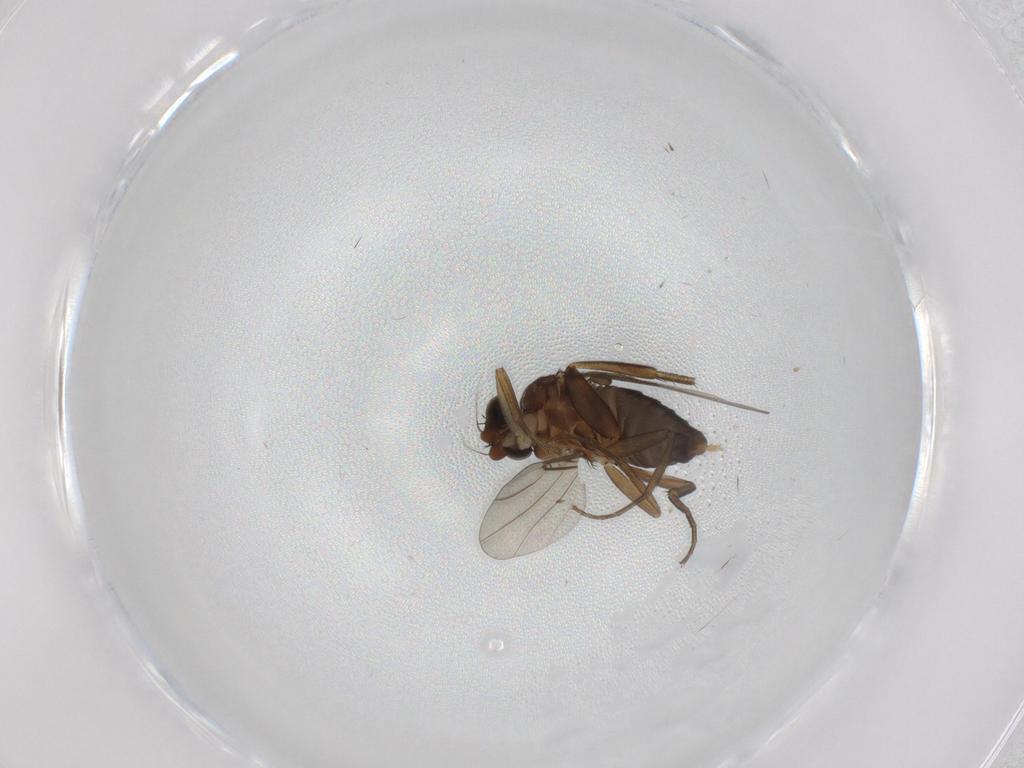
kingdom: Animalia
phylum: Arthropoda
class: Insecta
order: Diptera
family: Phoridae
